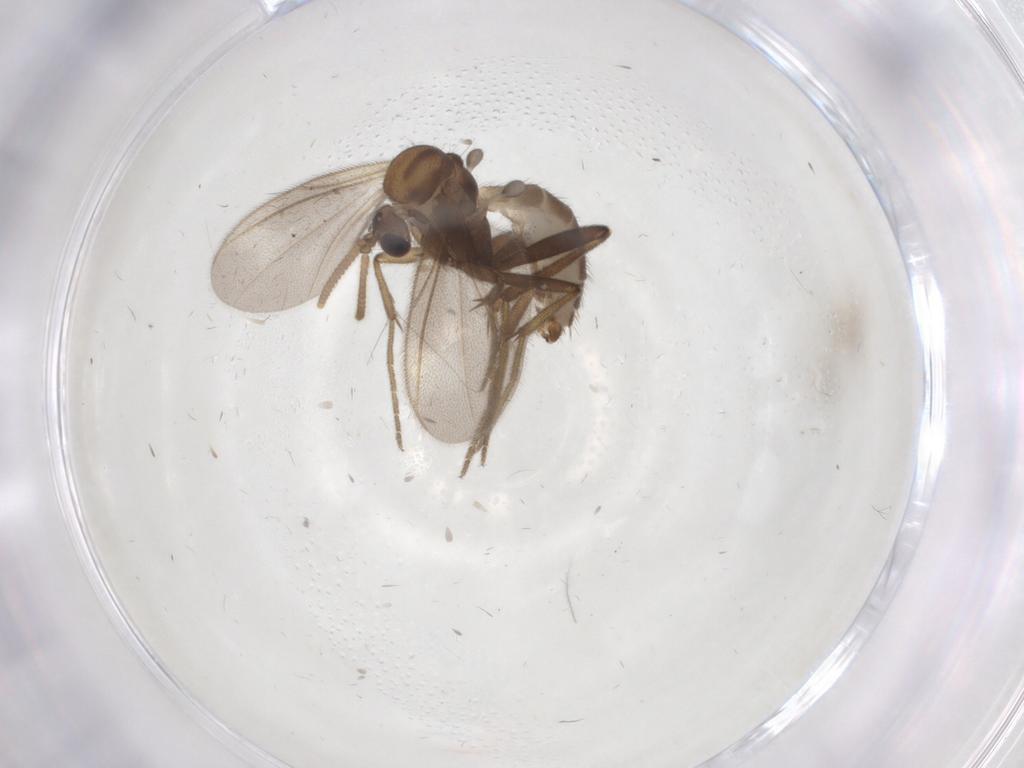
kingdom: Animalia
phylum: Arthropoda
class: Insecta
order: Diptera
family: Mycetophilidae
